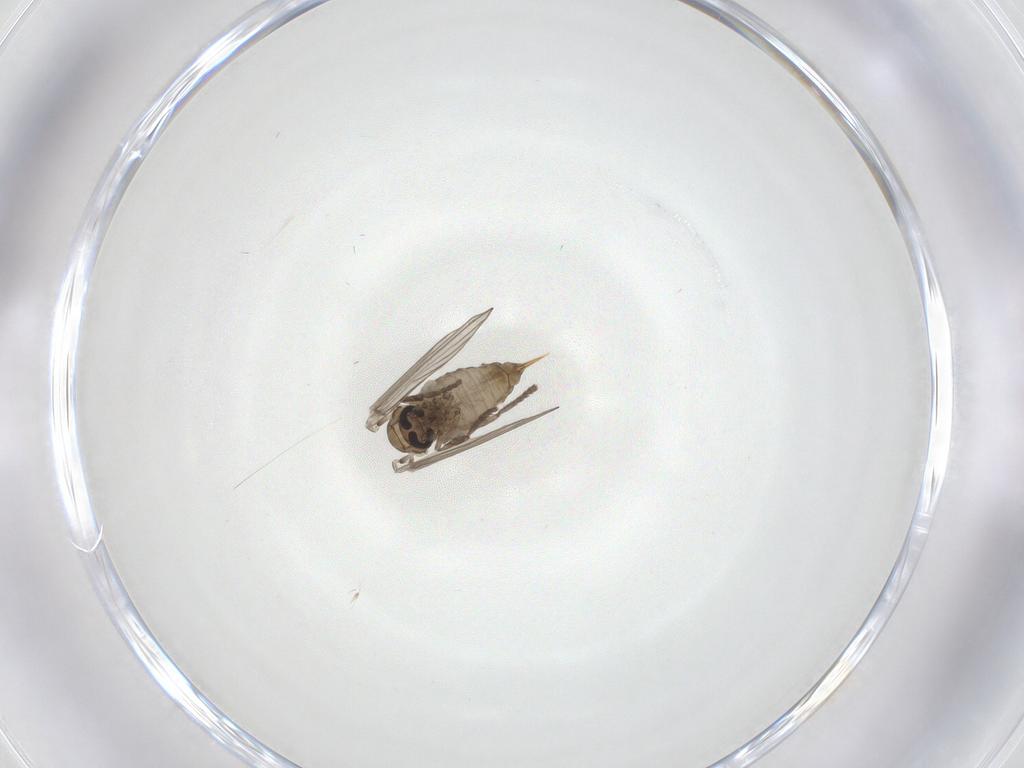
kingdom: Animalia
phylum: Arthropoda
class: Insecta
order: Diptera
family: Psychodidae
